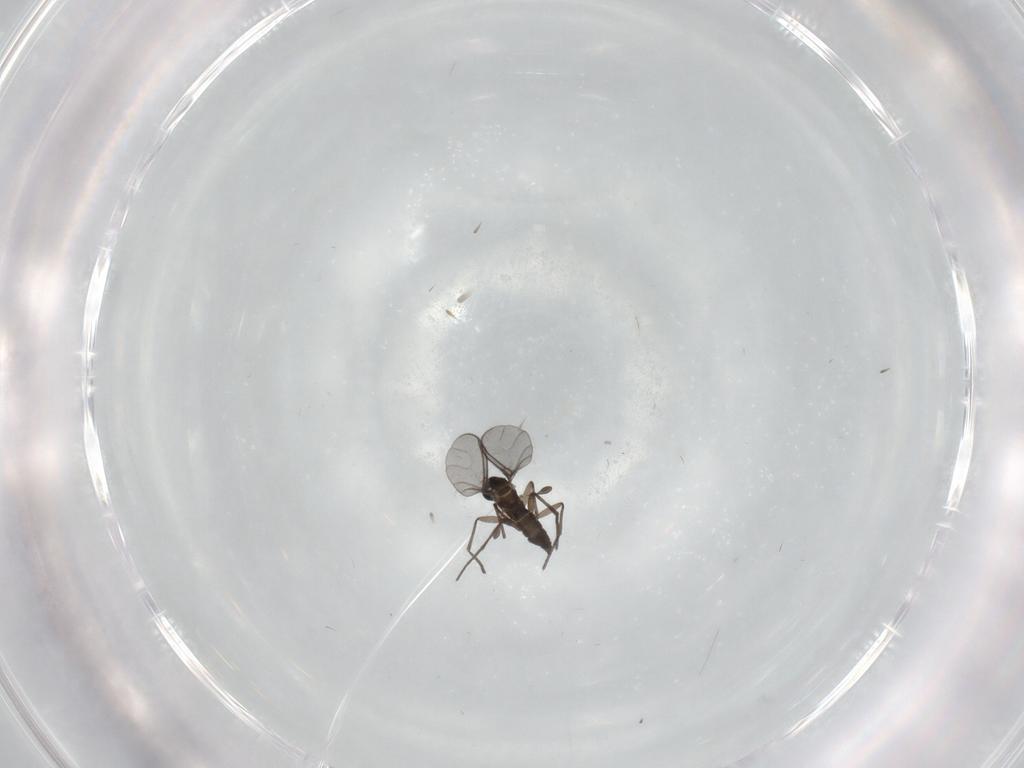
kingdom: Animalia
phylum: Arthropoda
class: Insecta
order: Diptera
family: Sciaridae
